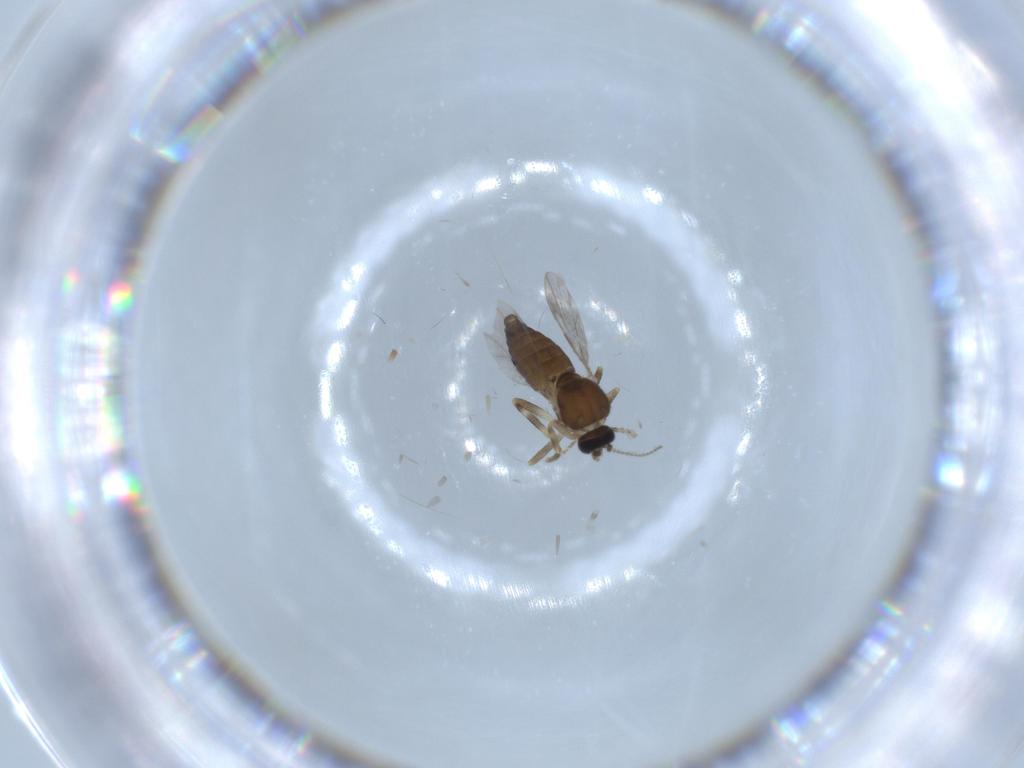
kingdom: Animalia
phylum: Arthropoda
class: Insecta
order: Diptera
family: Ceratopogonidae
